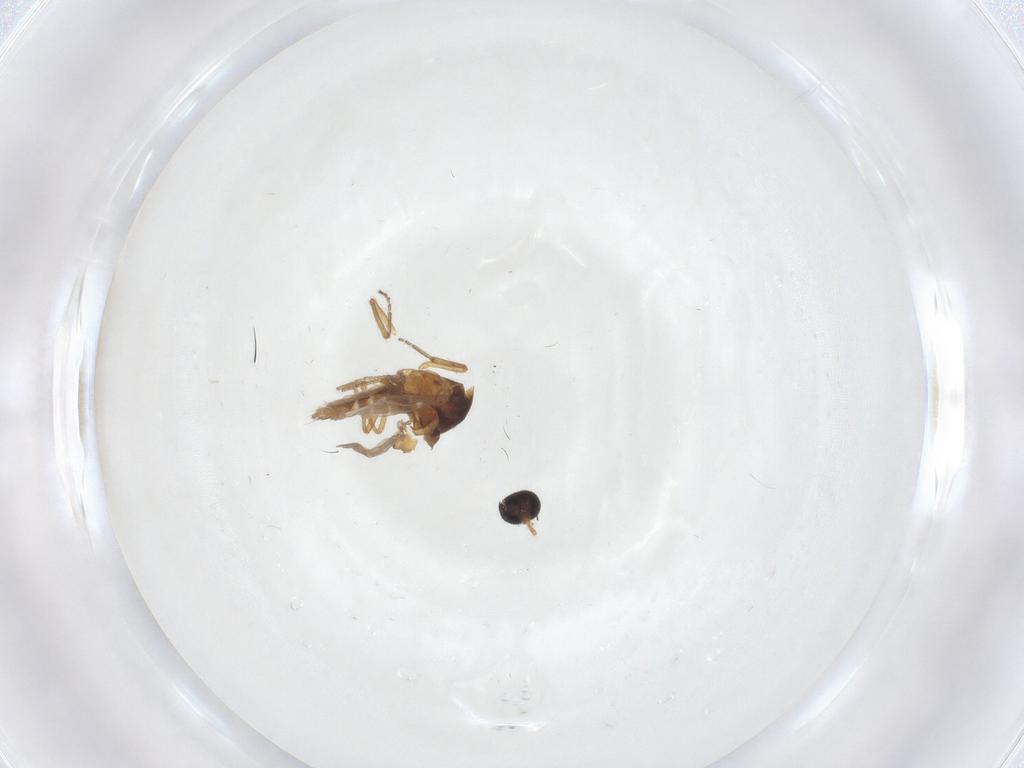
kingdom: Animalia
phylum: Arthropoda
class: Insecta
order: Diptera
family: Ceratopogonidae
